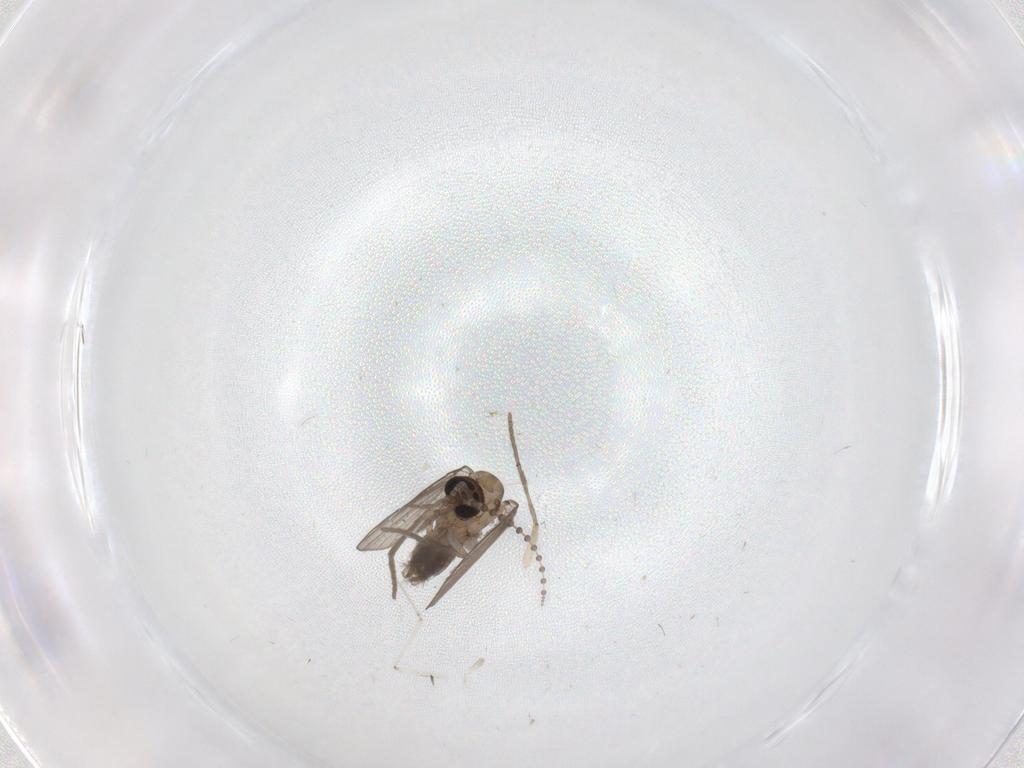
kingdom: Animalia
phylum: Arthropoda
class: Insecta
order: Diptera
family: Psychodidae
